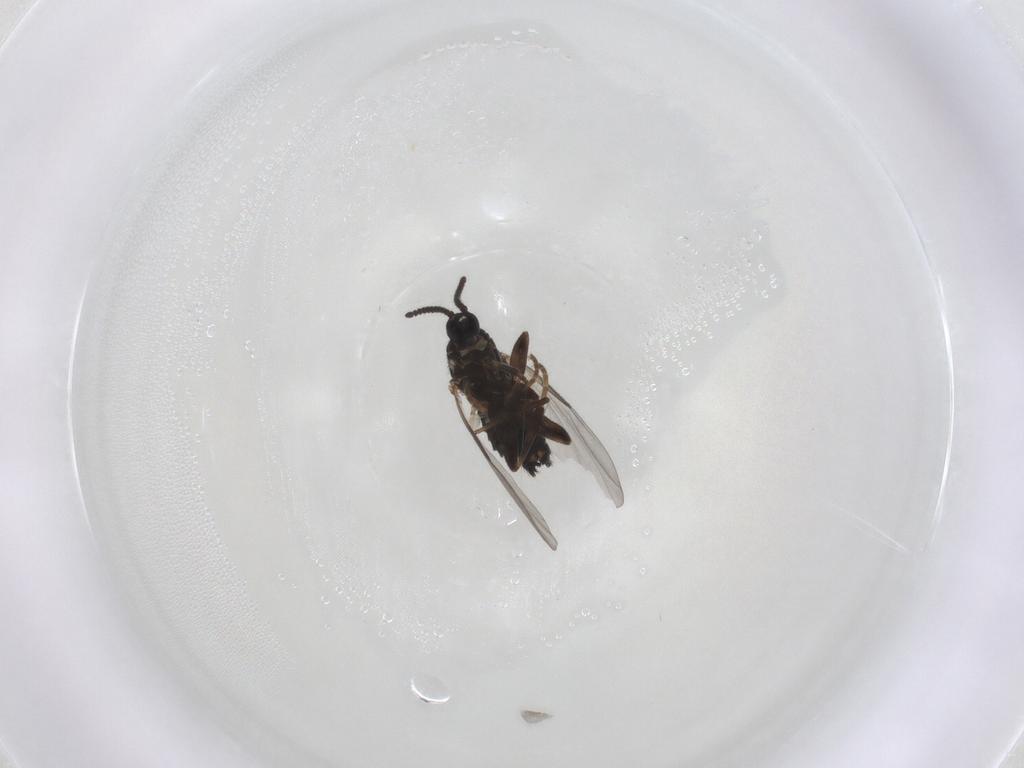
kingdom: Animalia
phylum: Arthropoda
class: Insecta
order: Diptera
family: Scatopsidae
